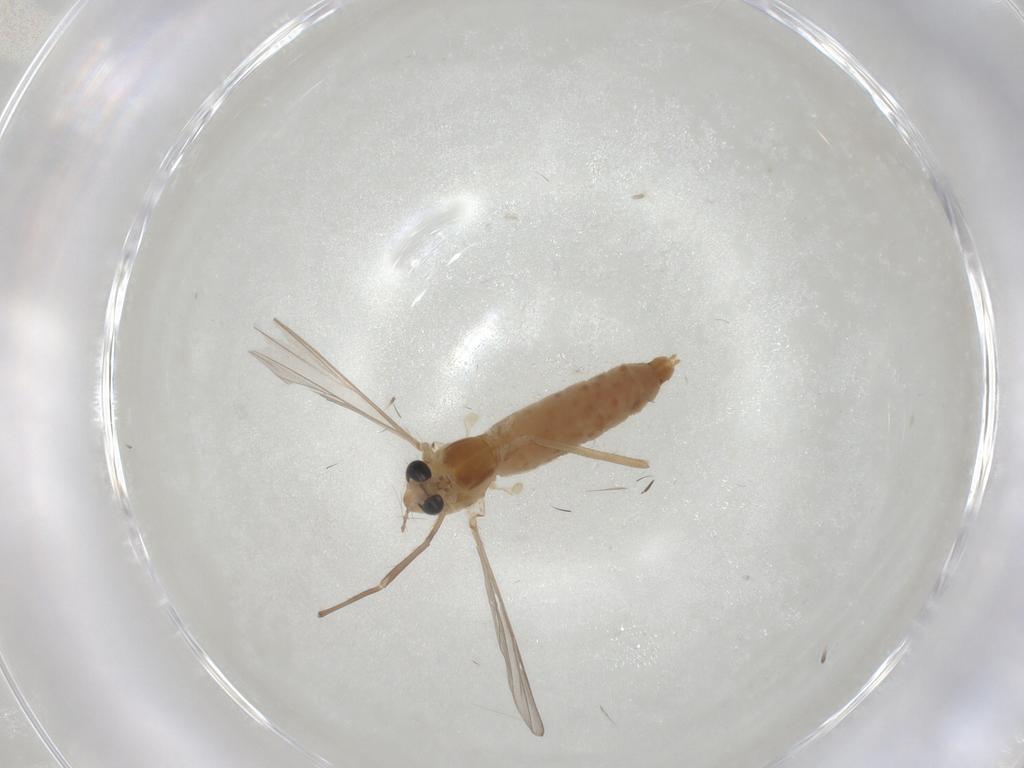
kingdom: Animalia
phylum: Arthropoda
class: Insecta
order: Diptera
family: Chironomidae
